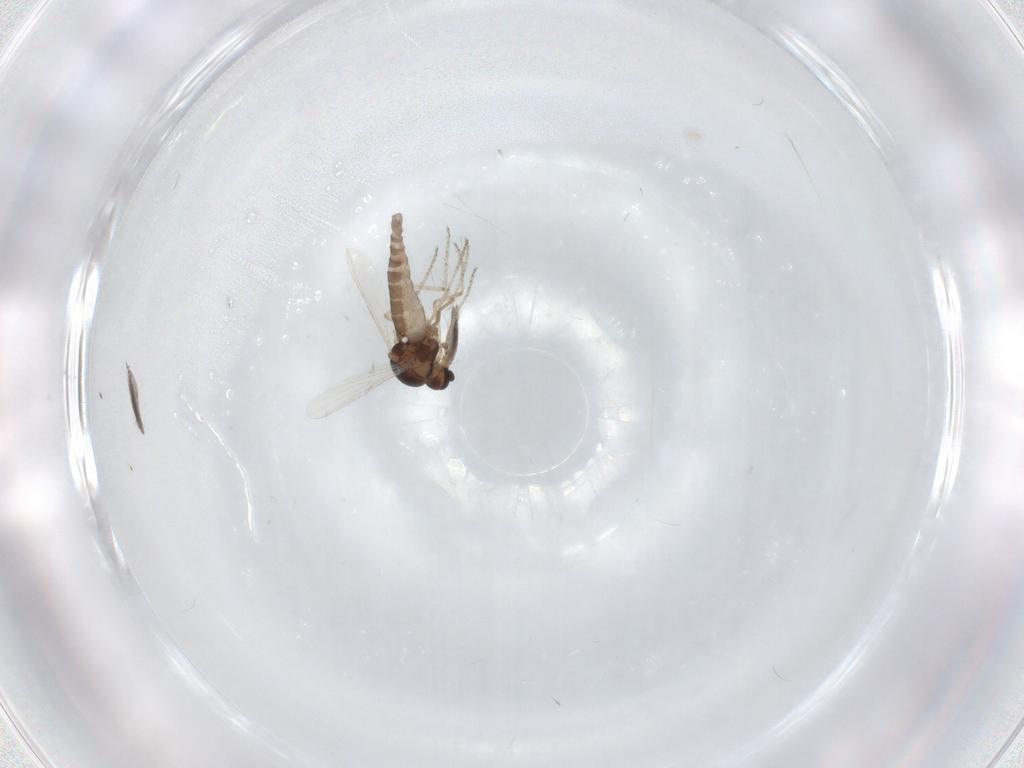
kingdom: Animalia
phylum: Arthropoda
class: Insecta
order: Diptera
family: Ceratopogonidae
